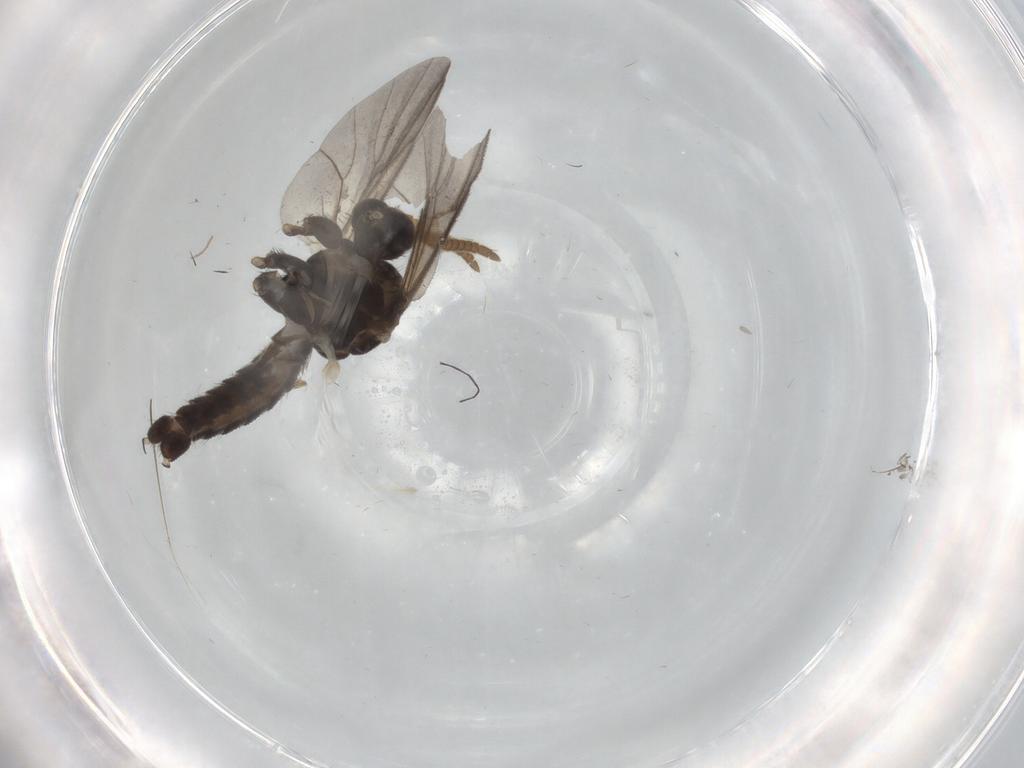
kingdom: Animalia
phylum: Arthropoda
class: Insecta
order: Diptera
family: Mycetophilidae
